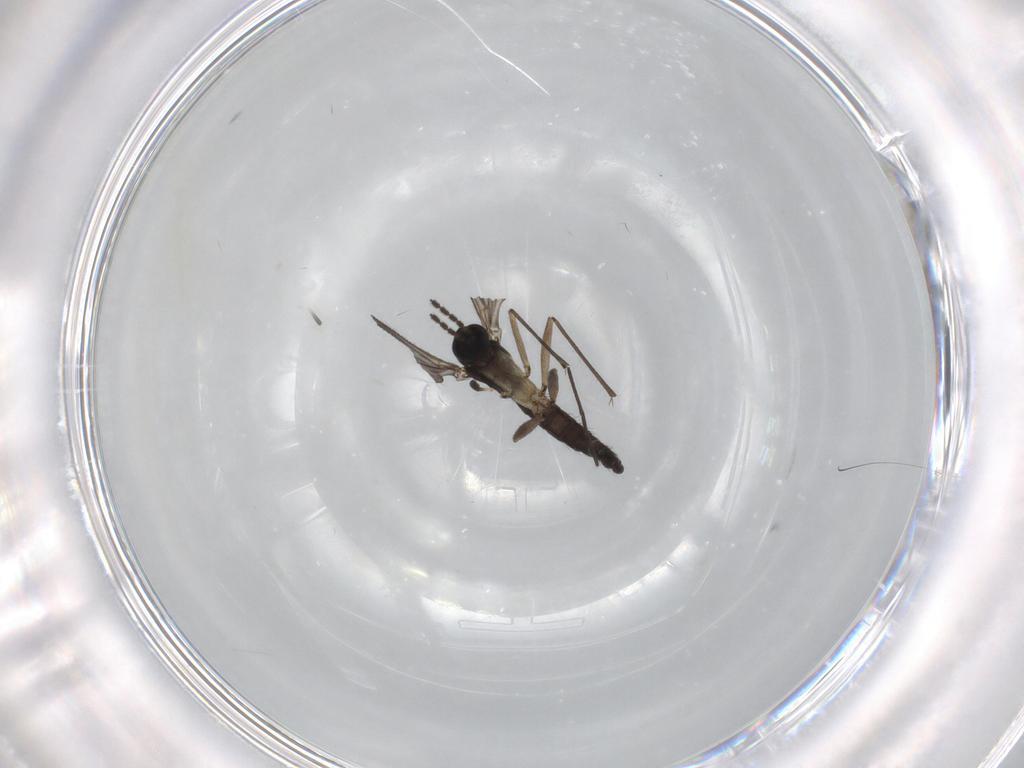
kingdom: Animalia
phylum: Arthropoda
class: Insecta
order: Diptera
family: Sciaridae
